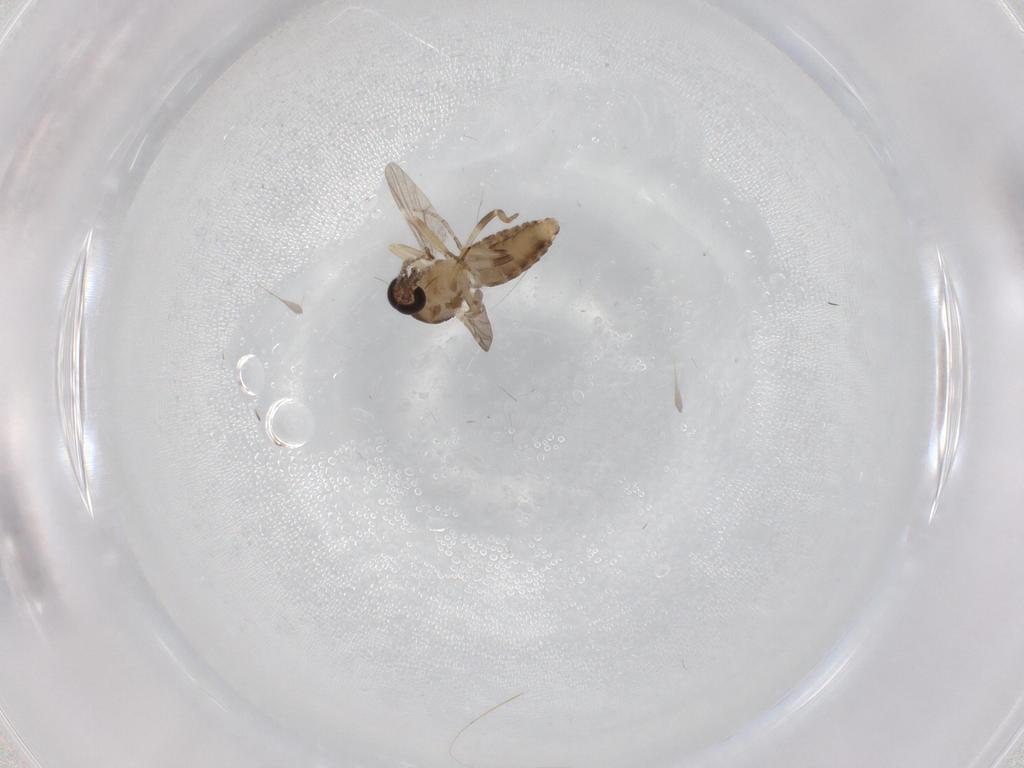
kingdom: Animalia
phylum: Arthropoda
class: Insecta
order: Diptera
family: Ceratopogonidae
